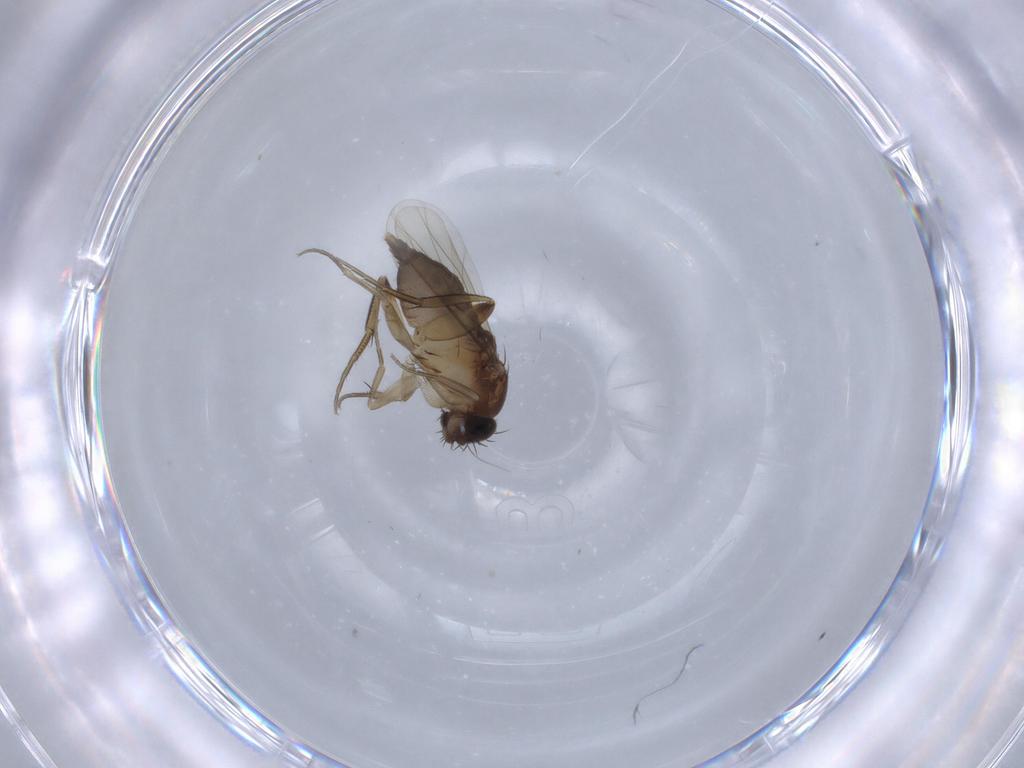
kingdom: Animalia
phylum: Arthropoda
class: Insecta
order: Diptera
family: Phoridae
